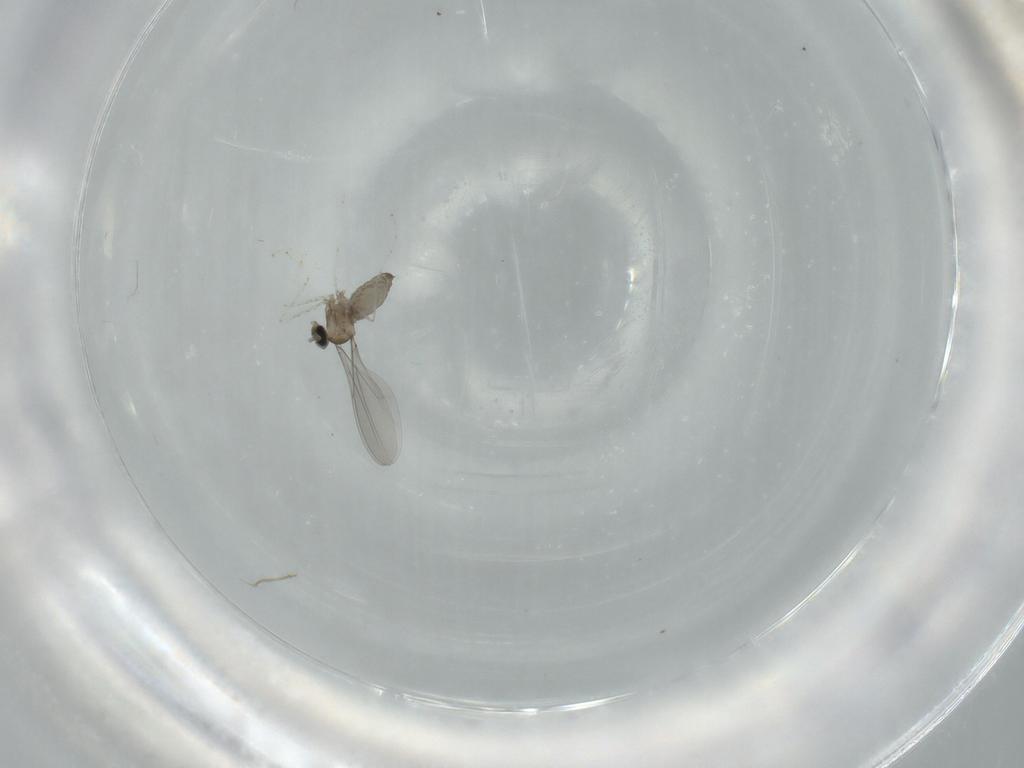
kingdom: Animalia
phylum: Arthropoda
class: Insecta
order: Diptera
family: Cecidomyiidae
